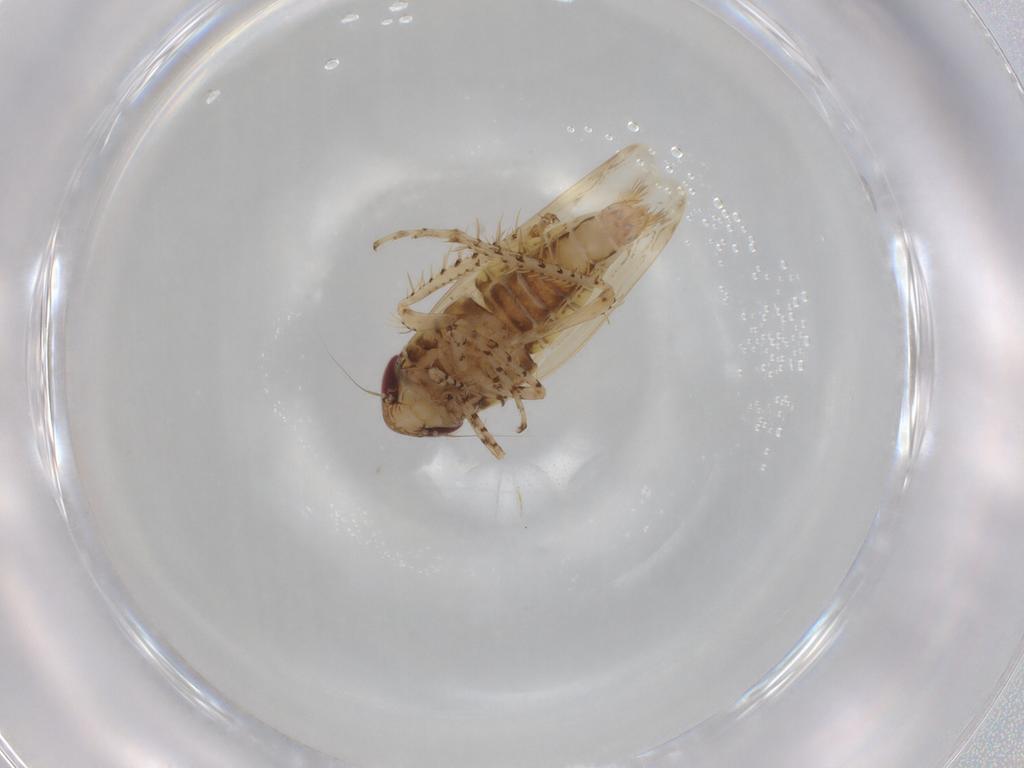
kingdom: Animalia
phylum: Arthropoda
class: Insecta
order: Hemiptera
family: Cicadellidae
